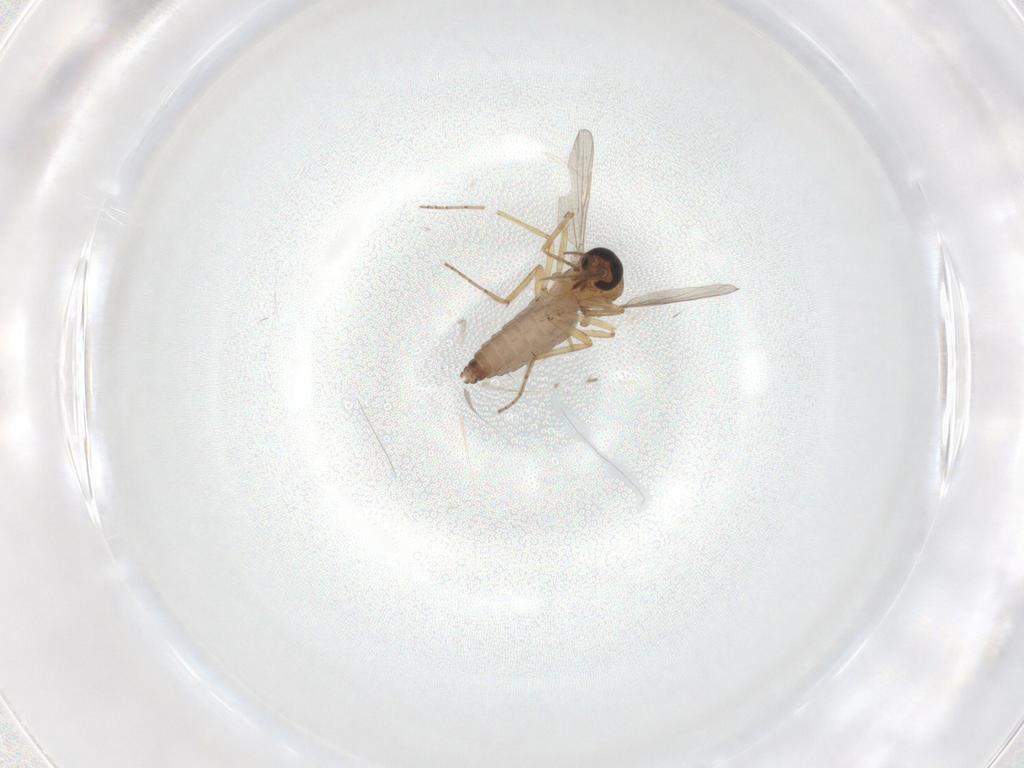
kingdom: Animalia
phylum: Arthropoda
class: Insecta
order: Diptera
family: Ceratopogonidae
